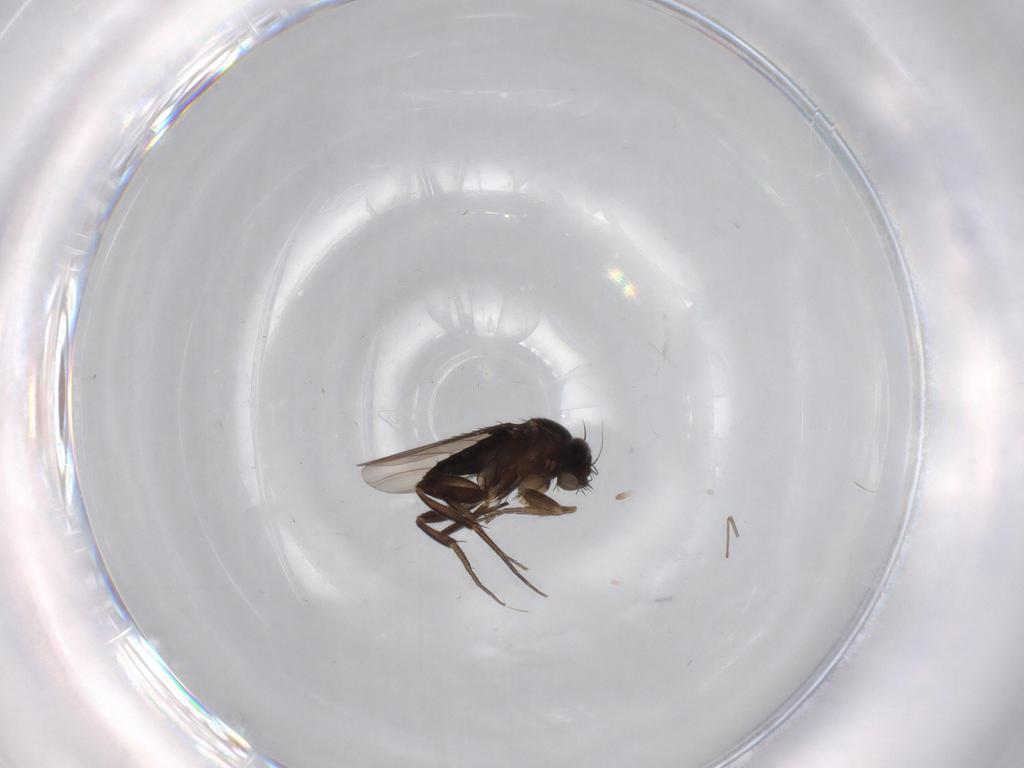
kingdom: Animalia
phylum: Arthropoda
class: Insecta
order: Diptera
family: Phoridae
